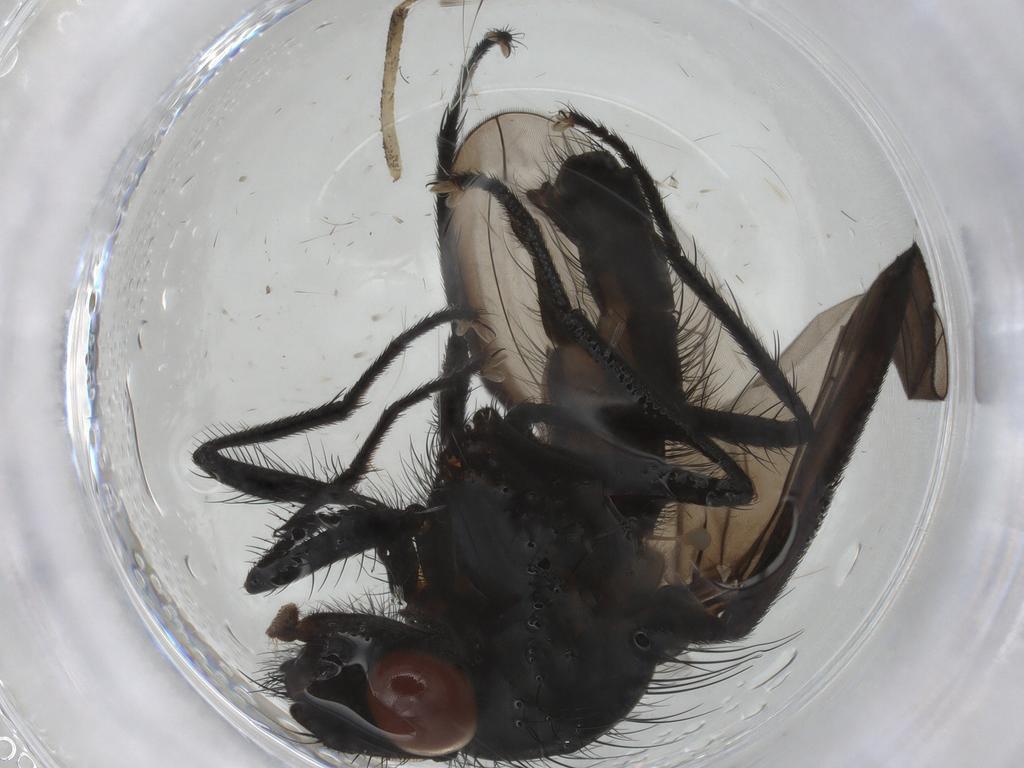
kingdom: Animalia
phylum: Arthropoda
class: Insecta
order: Diptera
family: Anthomyiidae
